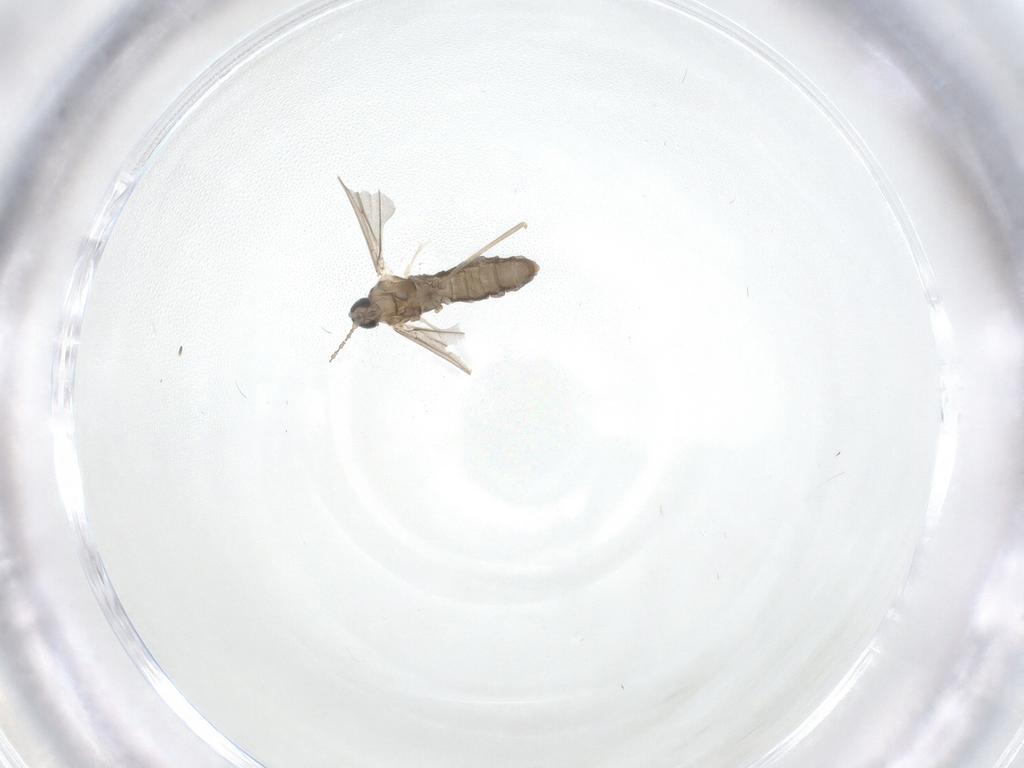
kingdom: Animalia
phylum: Arthropoda
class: Insecta
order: Diptera
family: Cecidomyiidae
